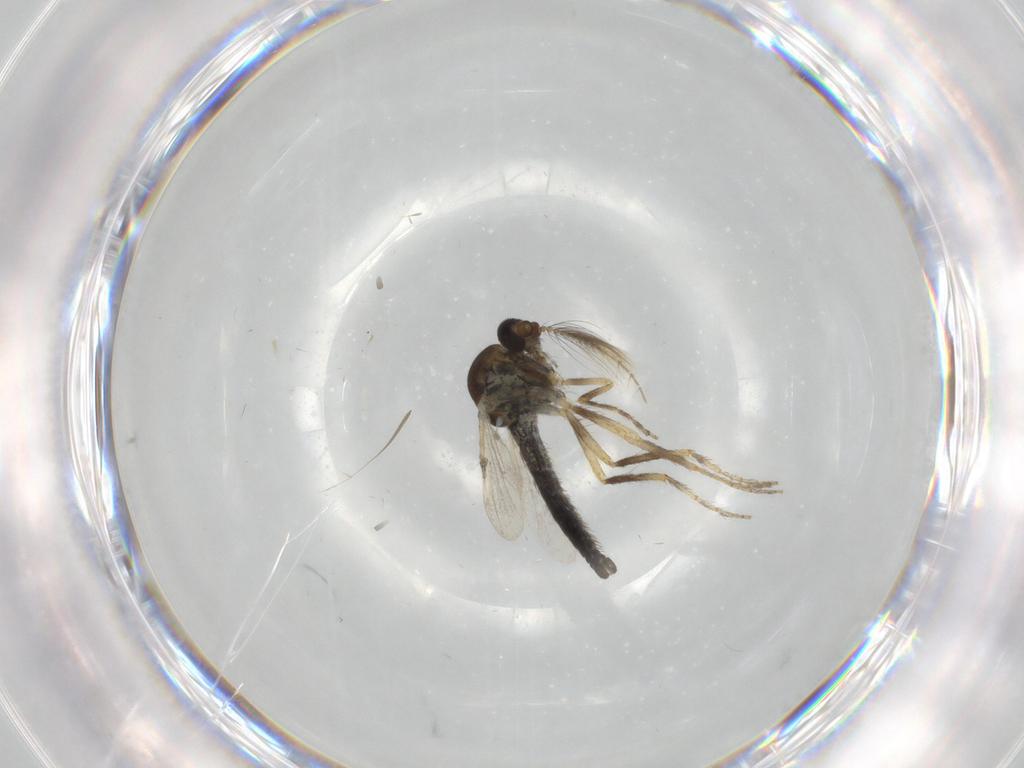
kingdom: Animalia
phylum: Arthropoda
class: Insecta
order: Diptera
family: Ceratopogonidae
